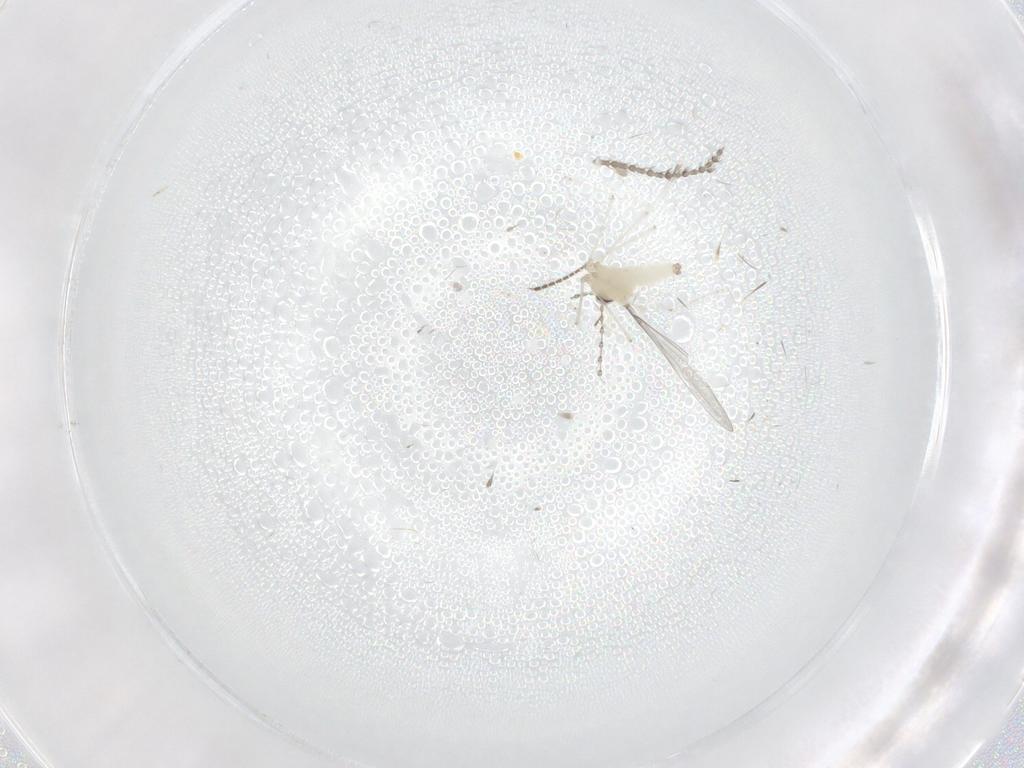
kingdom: Animalia
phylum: Arthropoda
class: Insecta
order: Diptera
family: Cecidomyiidae
